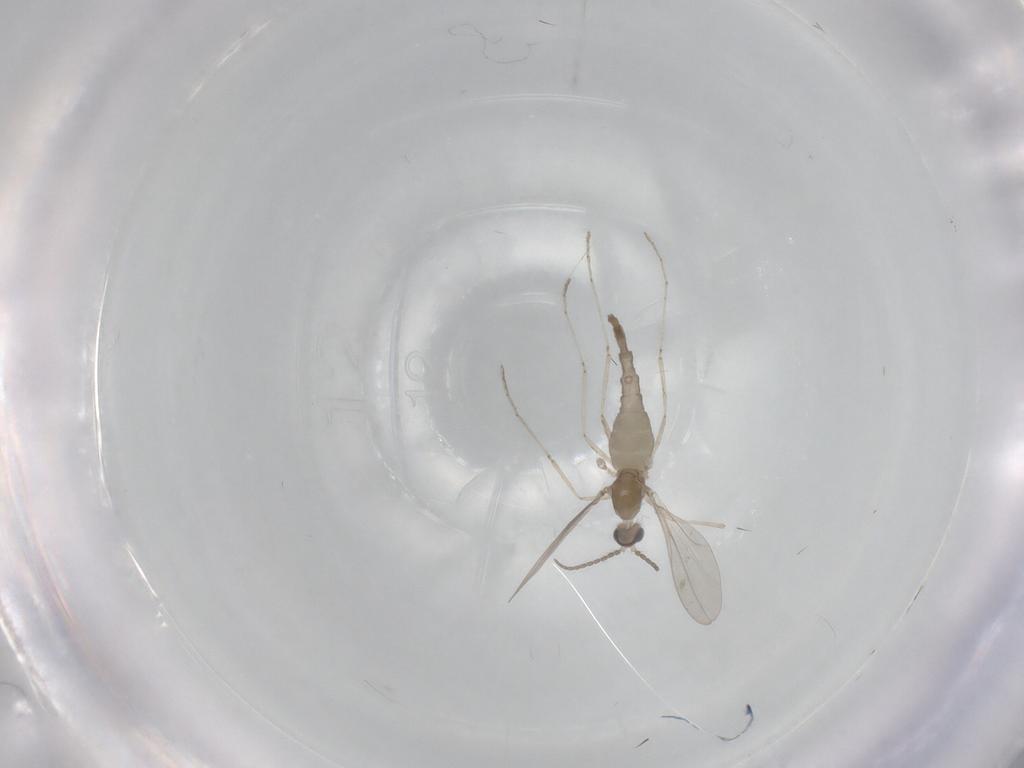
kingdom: Animalia
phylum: Arthropoda
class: Insecta
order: Diptera
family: Cecidomyiidae
